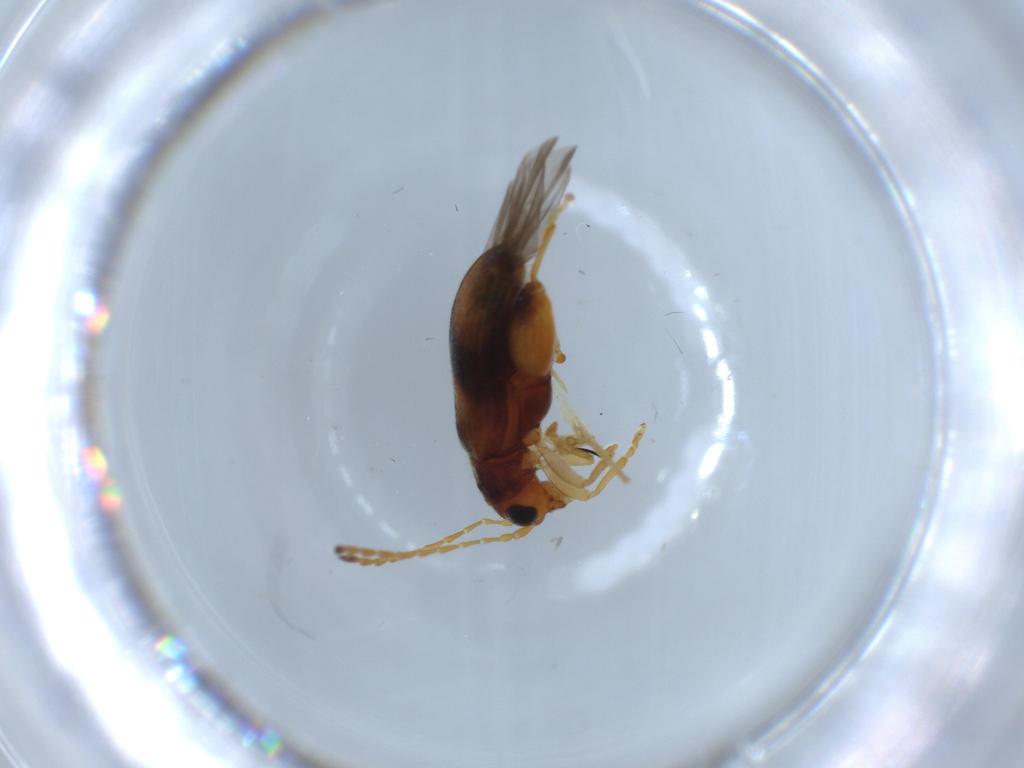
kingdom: Animalia
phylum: Arthropoda
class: Insecta
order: Coleoptera
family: Chrysomelidae
